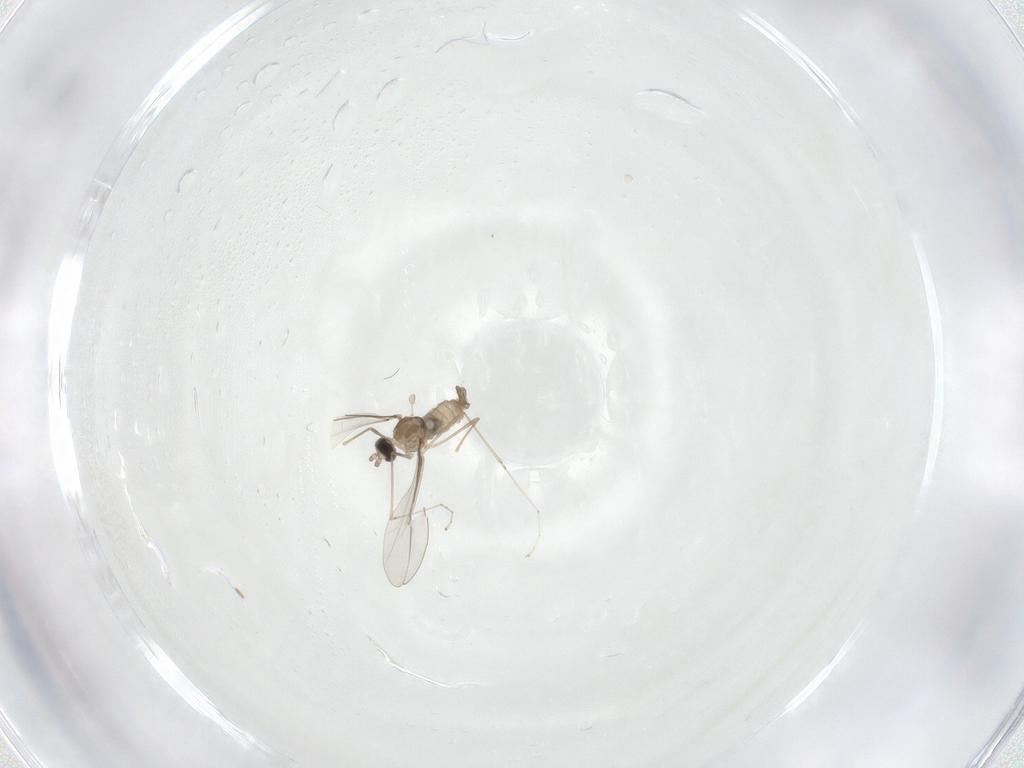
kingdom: Animalia
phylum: Arthropoda
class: Insecta
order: Diptera
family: Cecidomyiidae
